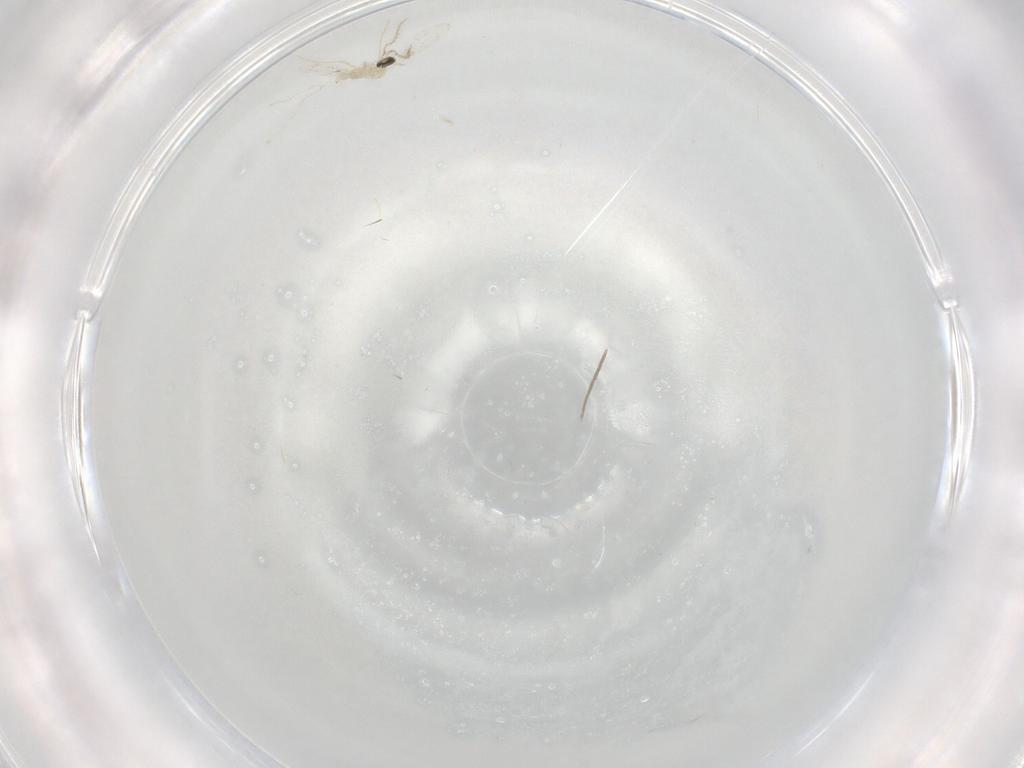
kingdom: Animalia
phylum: Arthropoda
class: Insecta
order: Diptera
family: Cecidomyiidae
